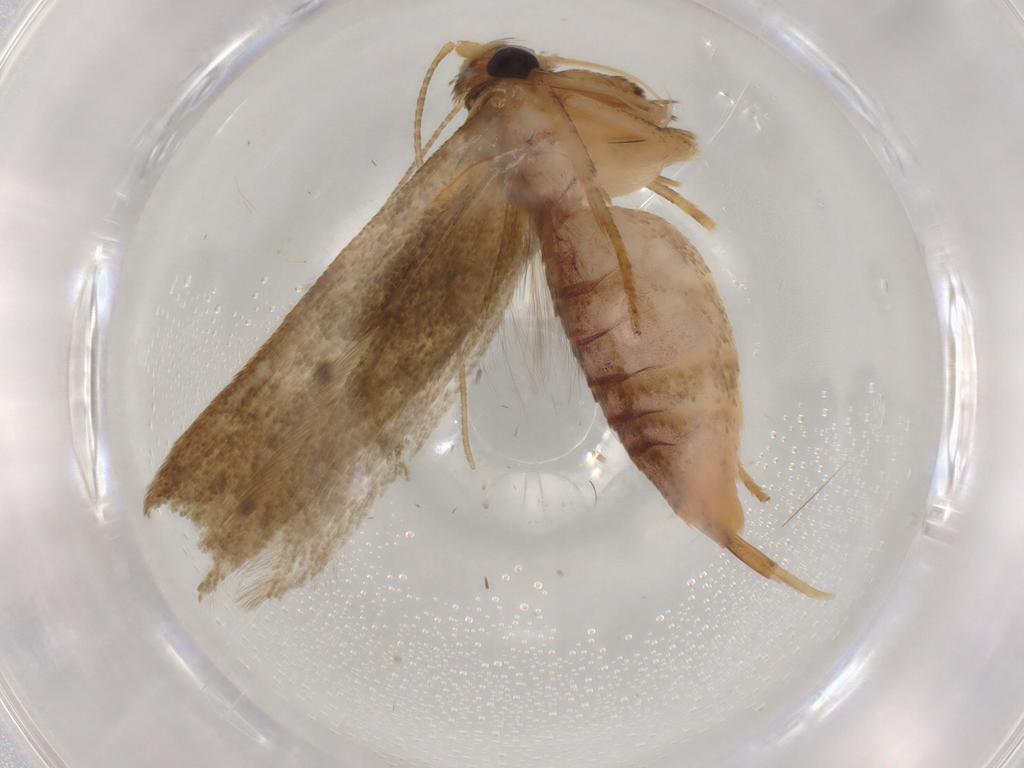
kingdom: Animalia
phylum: Arthropoda
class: Insecta
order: Lepidoptera
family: Blastobasidae
